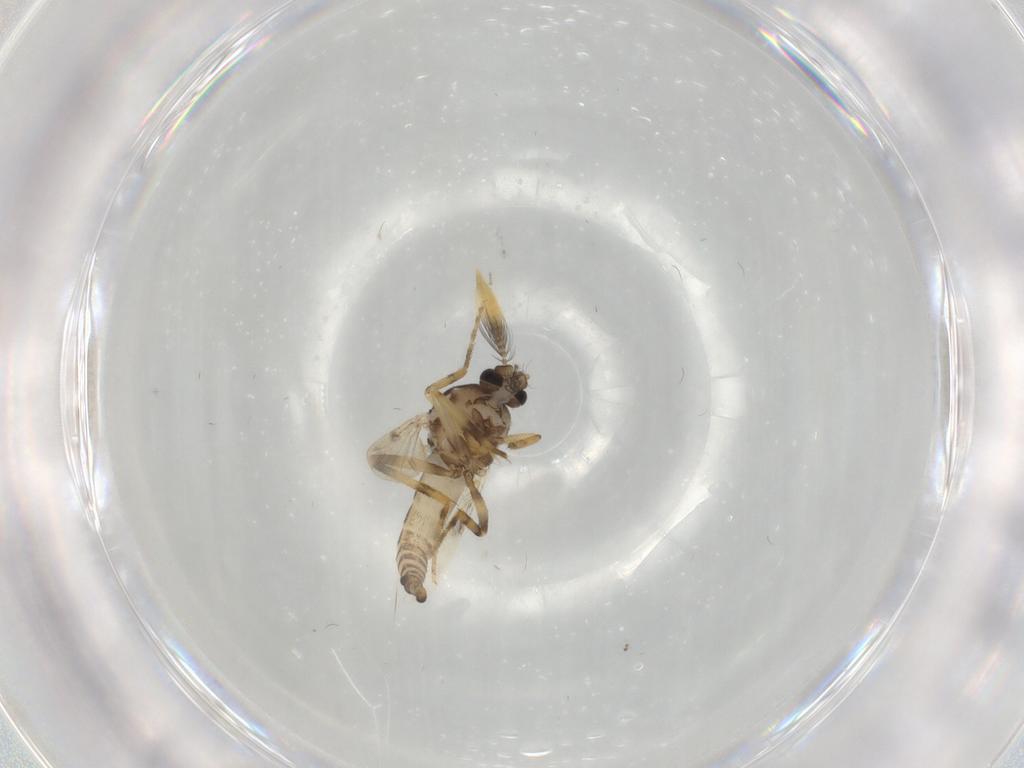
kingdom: Animalia
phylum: Arthropoda
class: Insecta
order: Diptera
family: Ceratopogonidae
